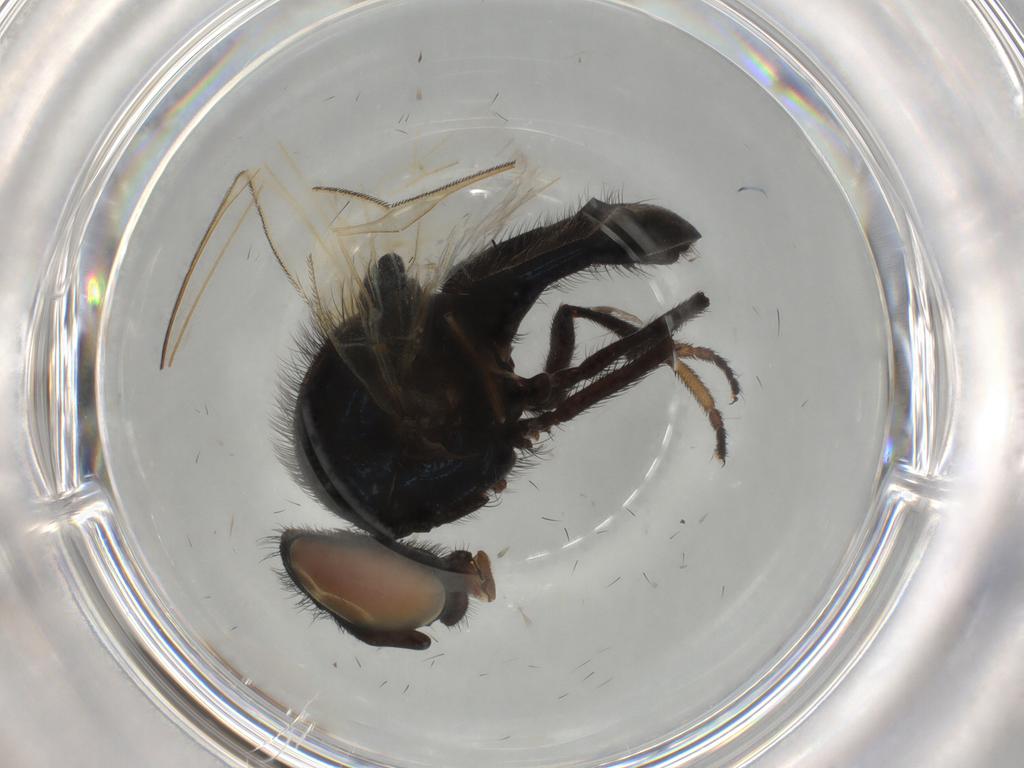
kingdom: Animalia
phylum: Arthropoda
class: Insecta
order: Diptera
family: Lonchaeidae
